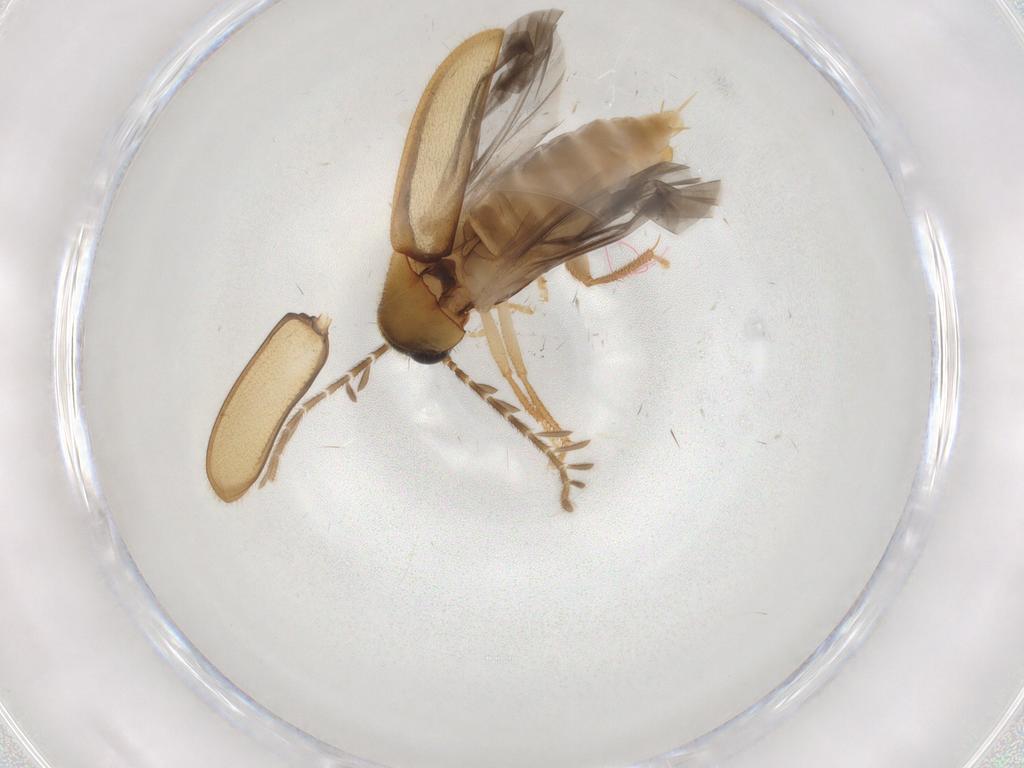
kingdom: Animalia
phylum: Arthropoda
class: Insecta
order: Coleoptera
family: Ptilodactylidae
